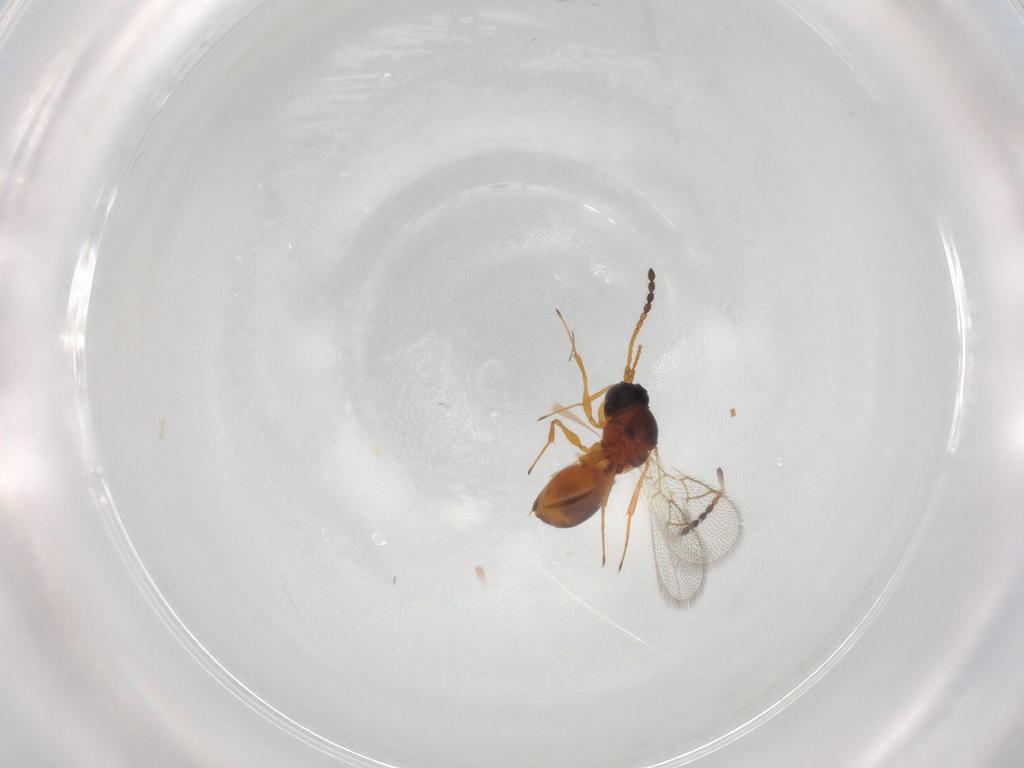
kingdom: Animalia
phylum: Arthropoda
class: Insecta
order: Hymenoptera
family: Figitidae
